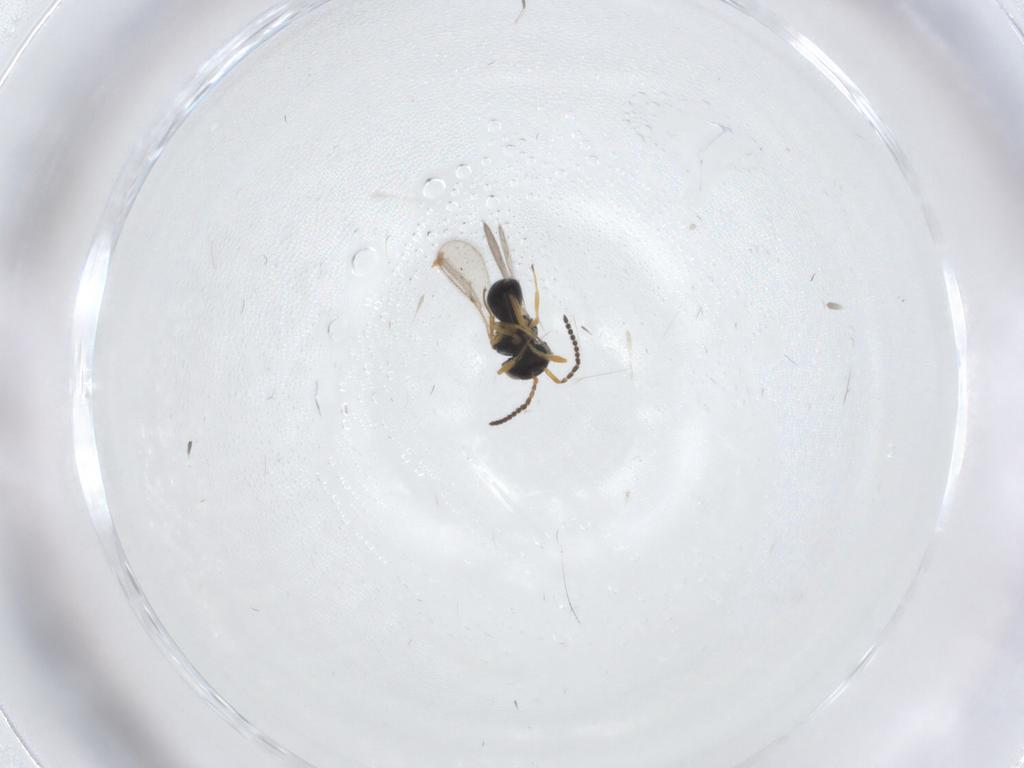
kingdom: Animalia
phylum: Arthropoda
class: Insecta
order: Hymenoptera
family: Scelionidae
